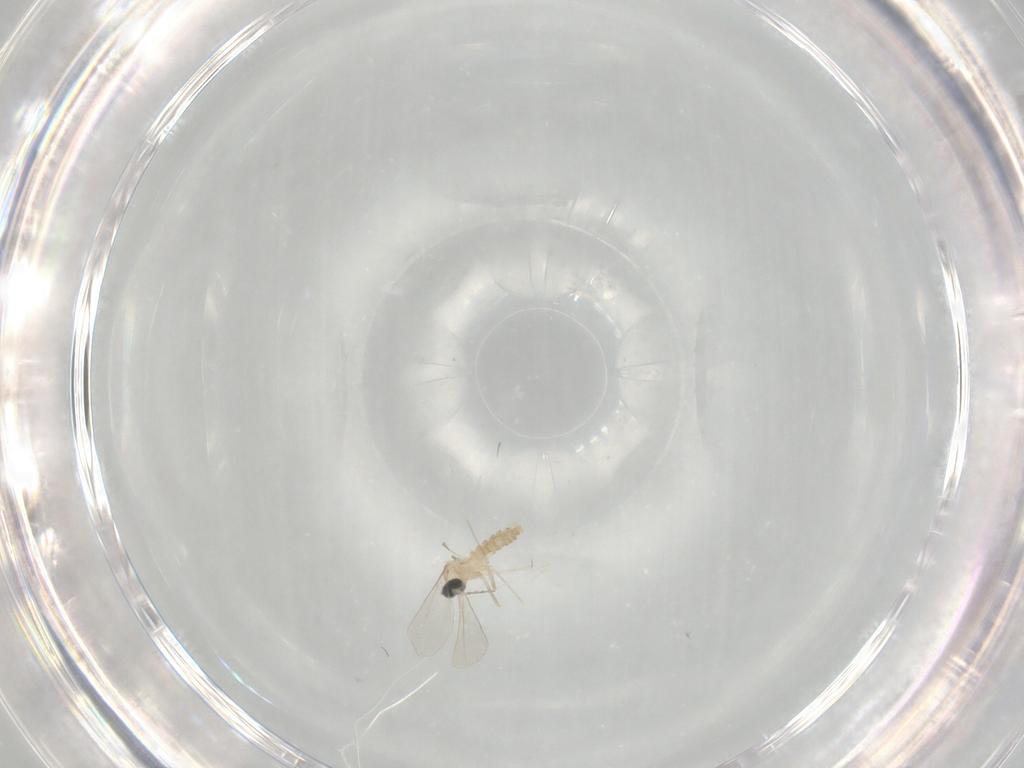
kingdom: Animalia
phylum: Arthropoda
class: Insecta
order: Diptera
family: Cecidomyiidae
